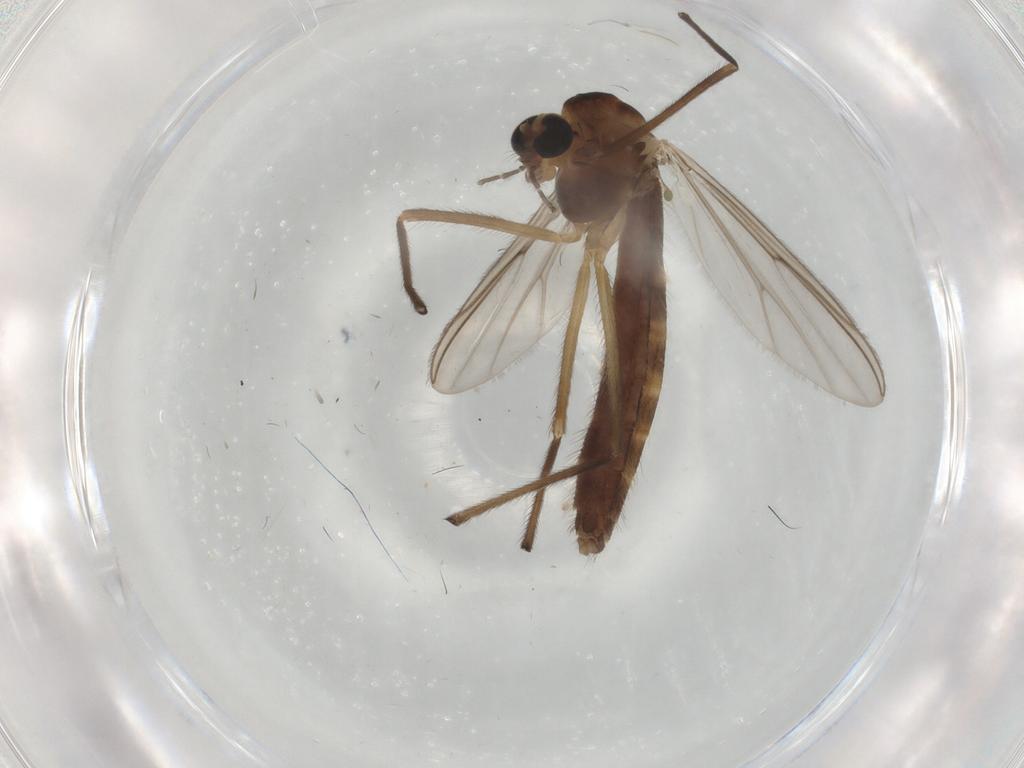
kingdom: Animalia
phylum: Arthropoda
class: Insecta
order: Diptera
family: Chironomidae
